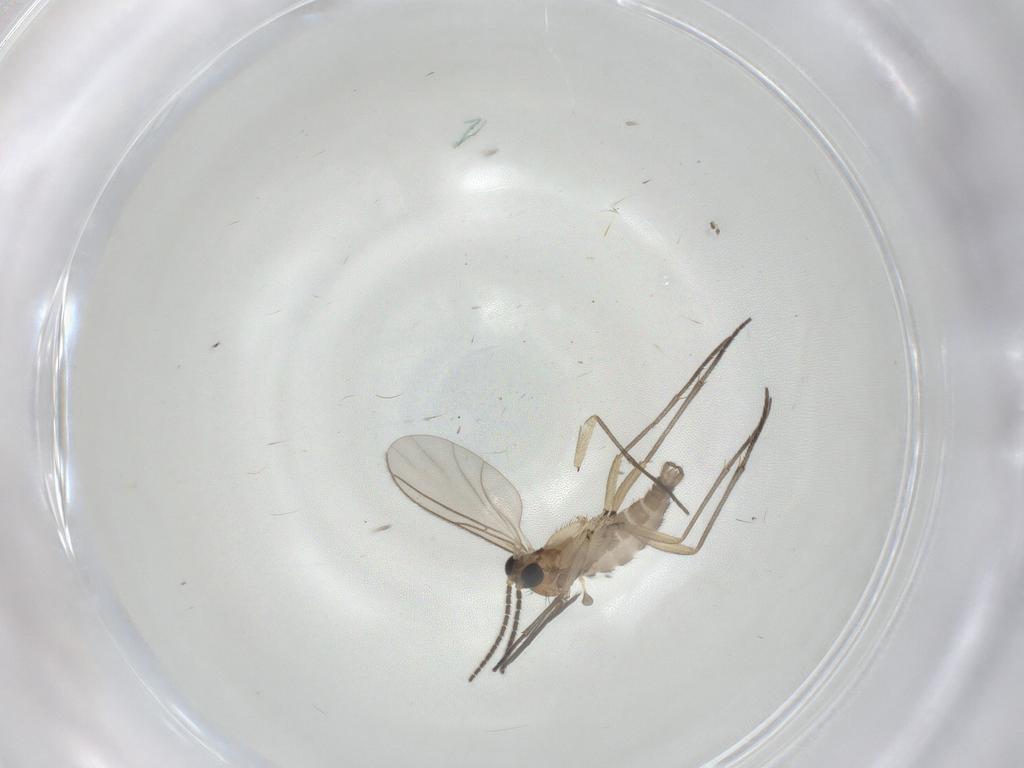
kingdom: Animalia
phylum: Arthropoda
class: Insecta
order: Diptera
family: Sciaridae
